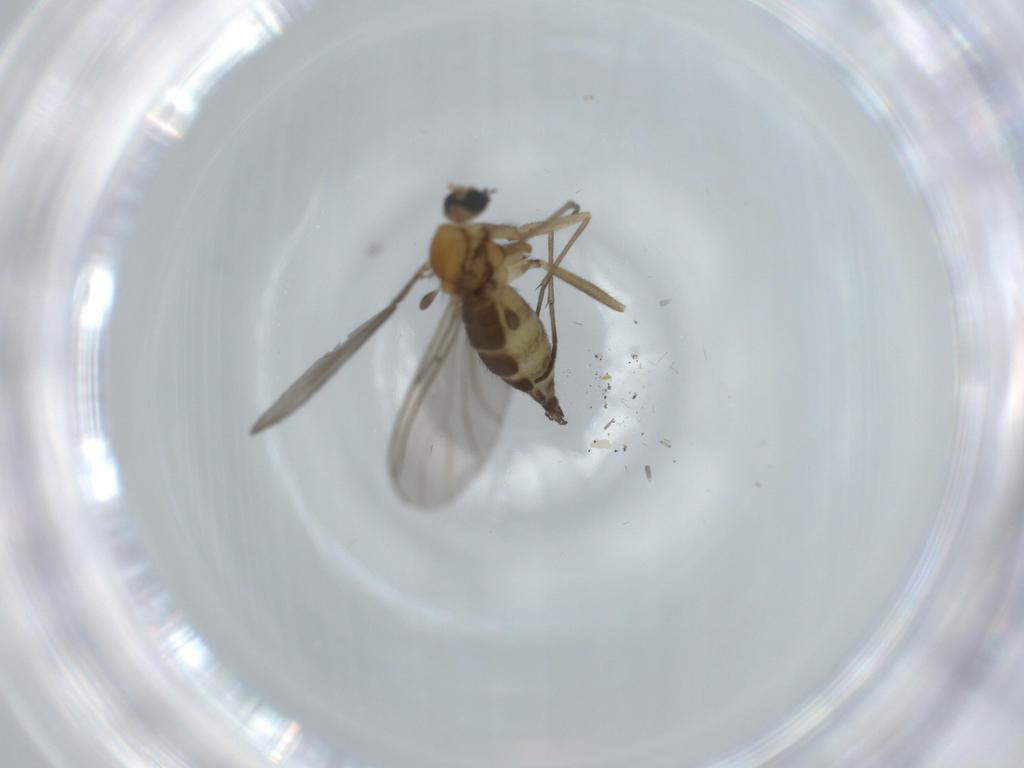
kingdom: Animalia
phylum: Arthropoda
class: Insecta
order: Diptera
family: Sciaridae
